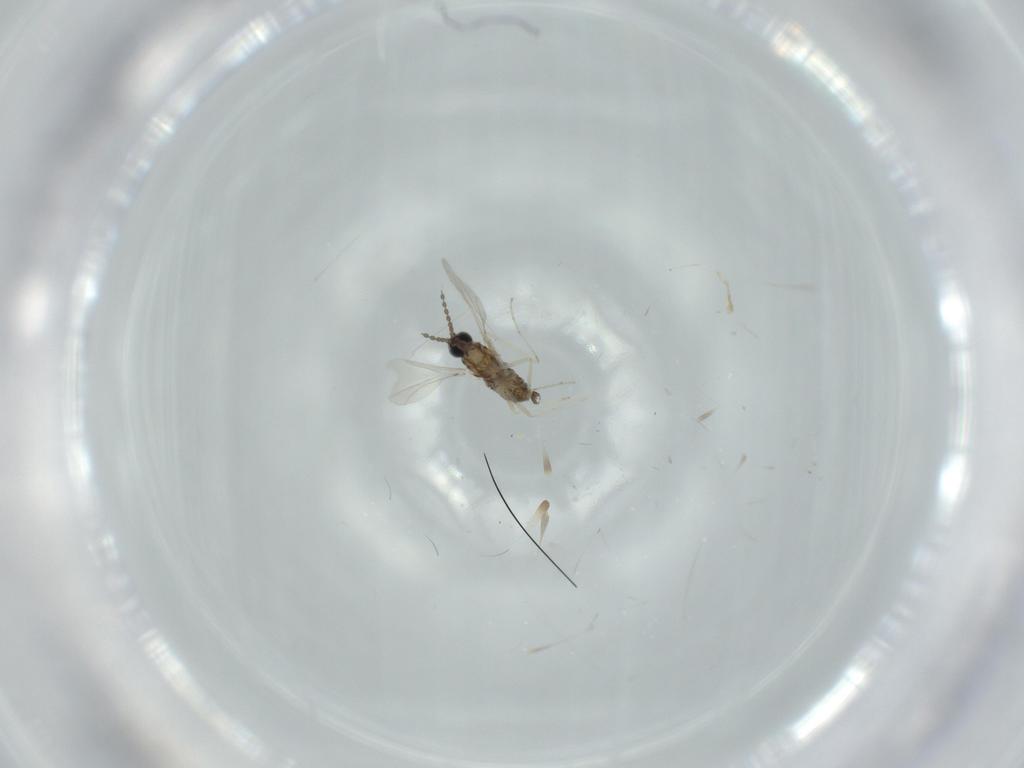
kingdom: Animalia
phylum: Arthropoda
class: Insecta
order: Diptera
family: Cecidomyiidae
